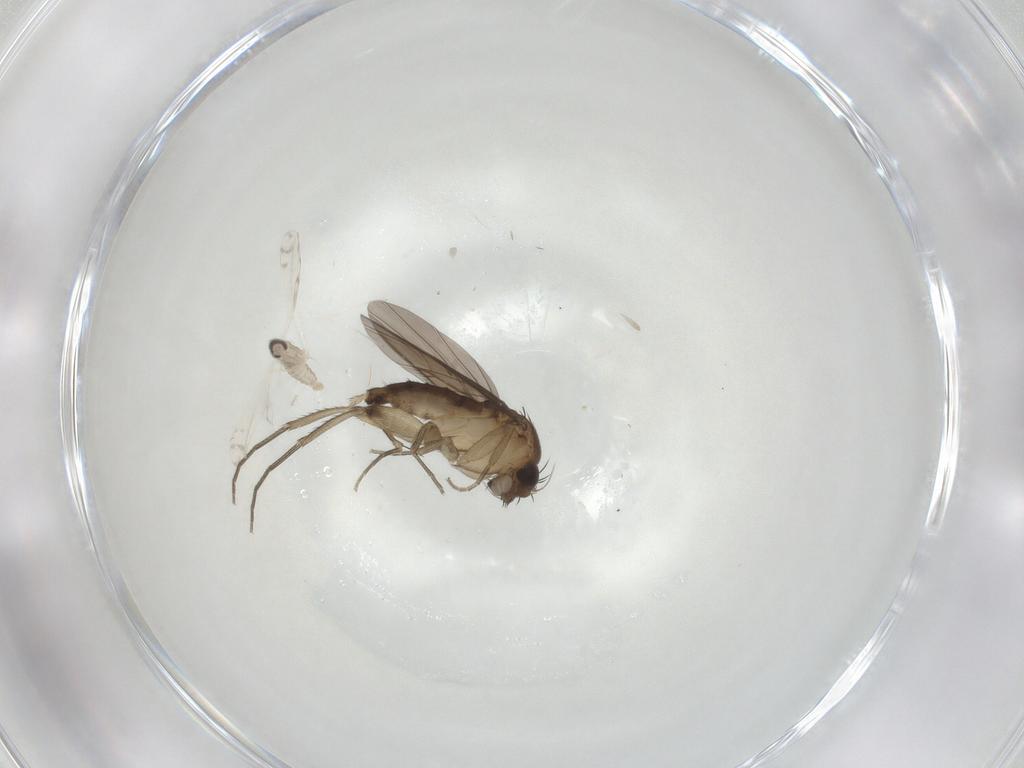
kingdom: Animalia
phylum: Arthropoda
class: Insecta
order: Diptera
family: Phoridae
